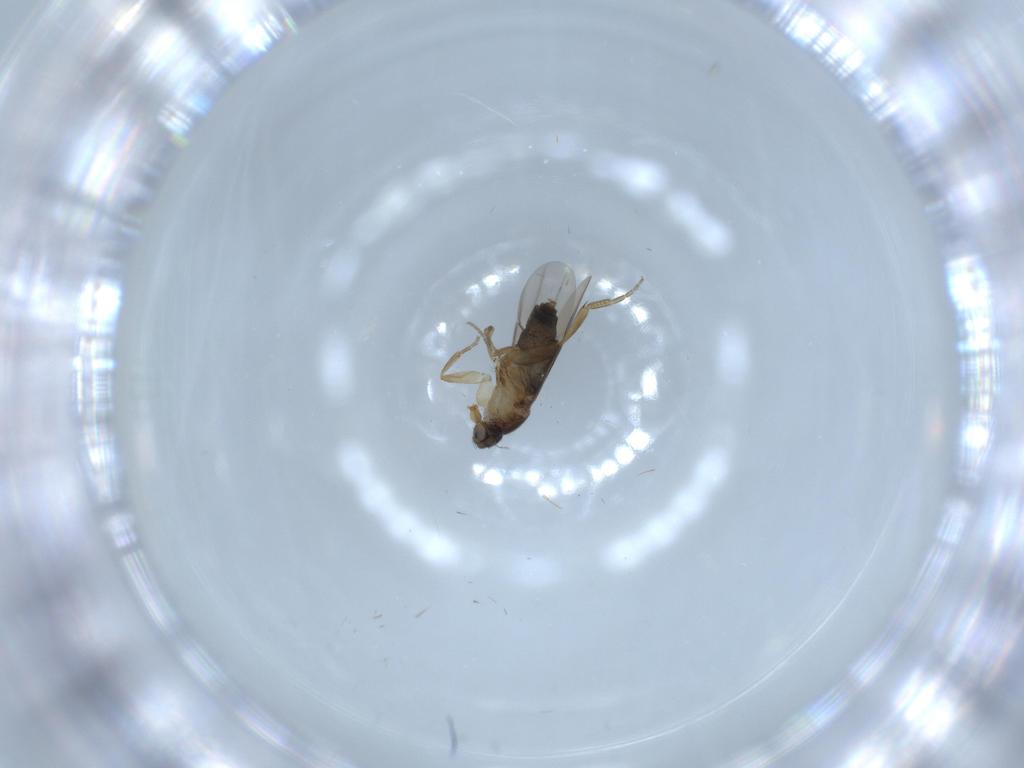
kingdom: Animalia
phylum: Arthropoda
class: Insecta
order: Diptera
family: Phoridae
